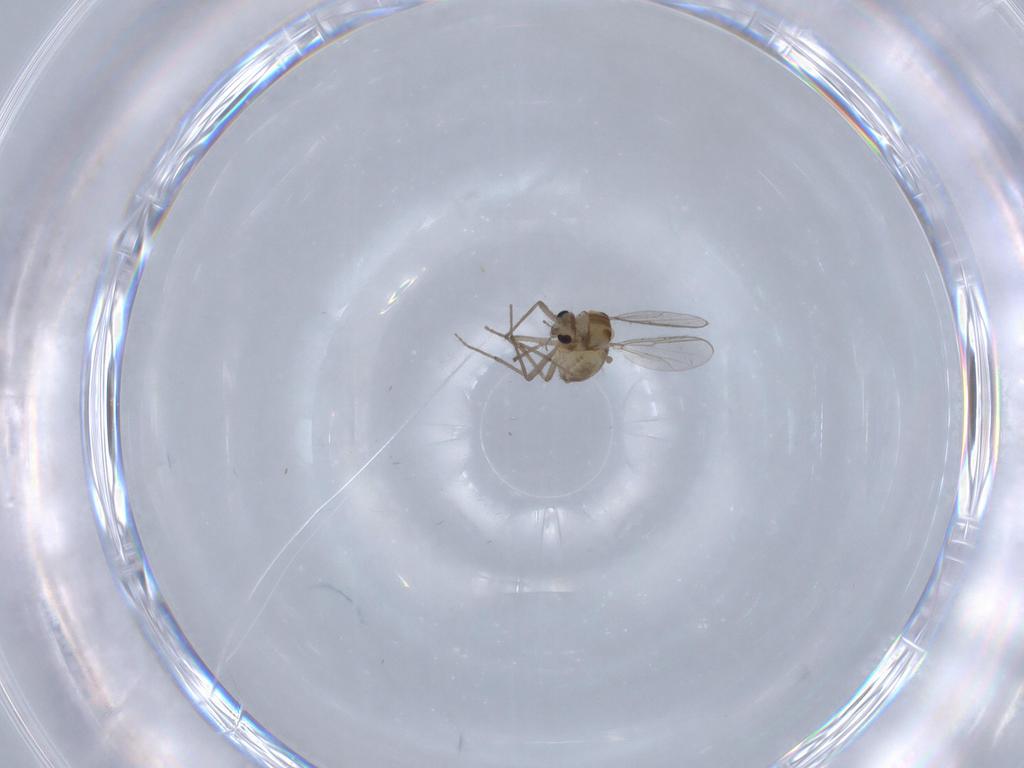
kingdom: Animalia
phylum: Arthropoda
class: Insecta
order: Diptera
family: Chironomidae
